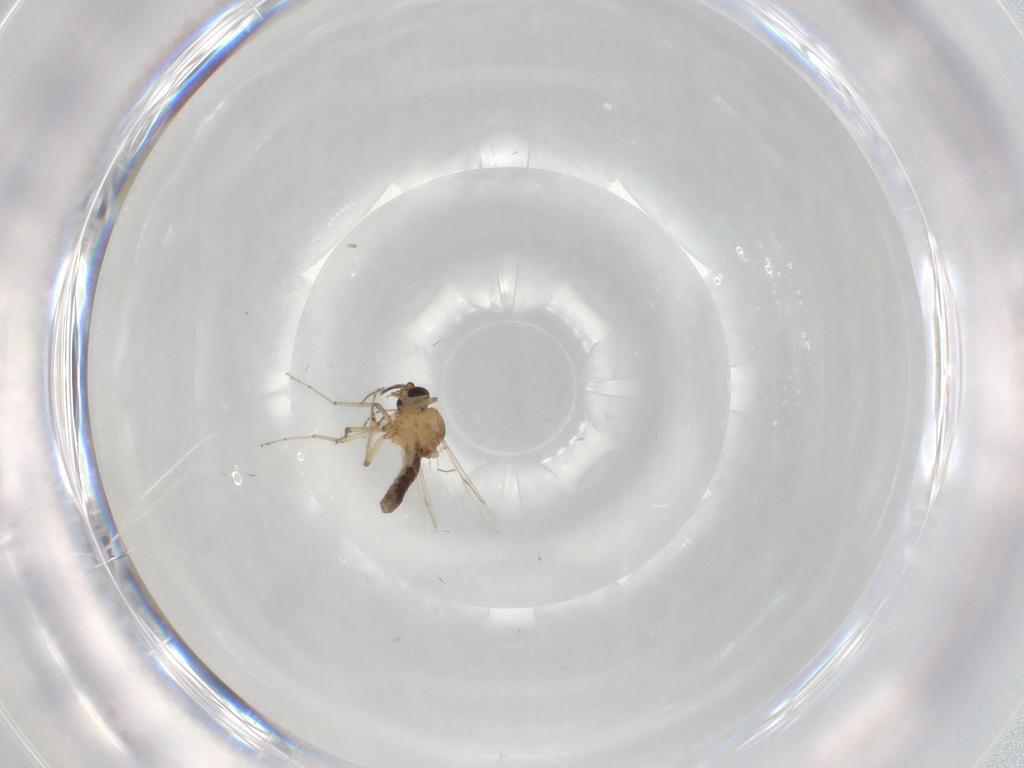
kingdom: Animalia
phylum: Arthropoda
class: Insecta
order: Diptera
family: Ceratopogonidae
